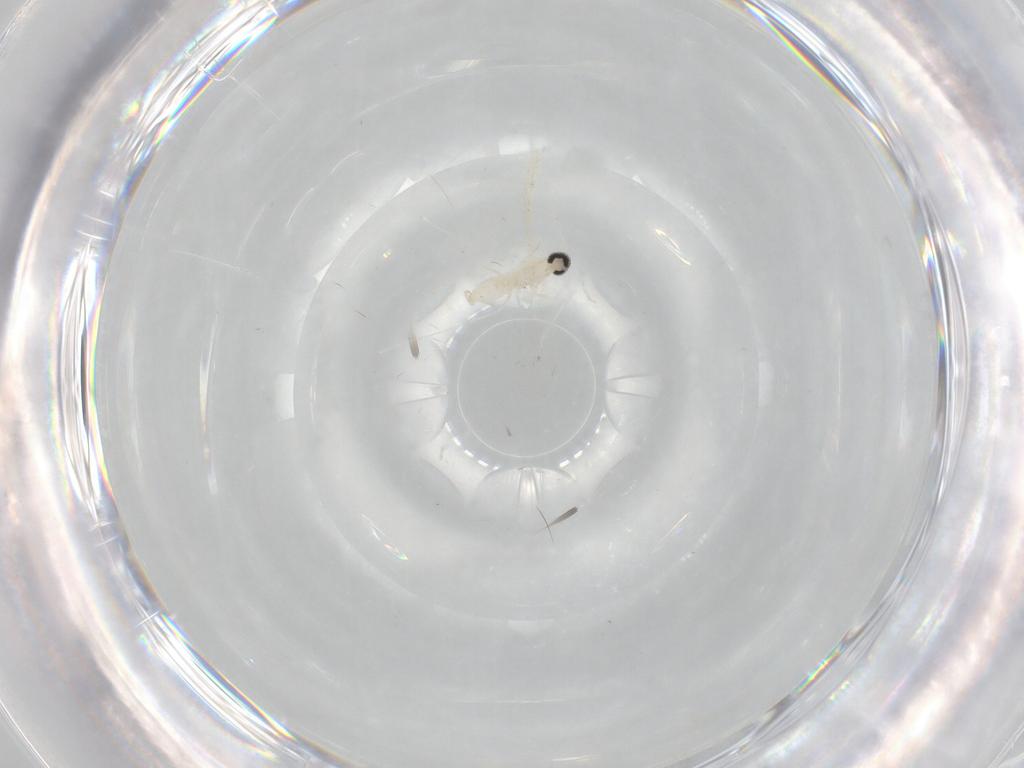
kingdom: Animalia
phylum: Arthropoda
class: Insecta
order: Diptera
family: Cecidomyiidae
